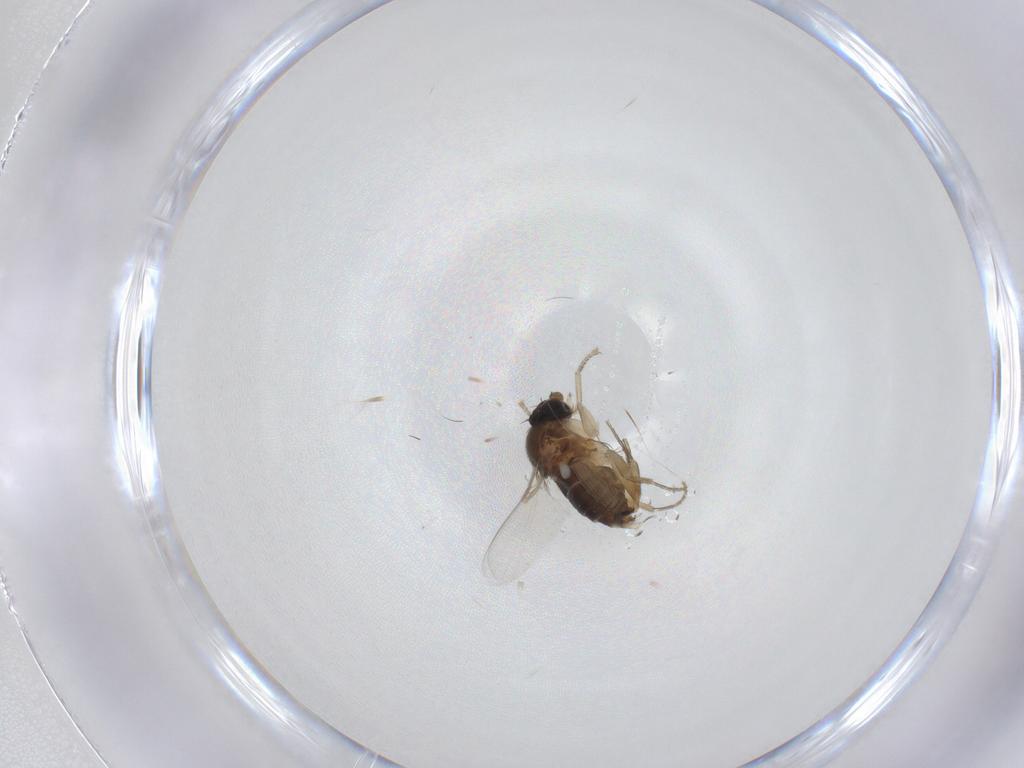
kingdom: Animalia
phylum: Arthropoda
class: Insecta
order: Diptera
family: Phoridae
